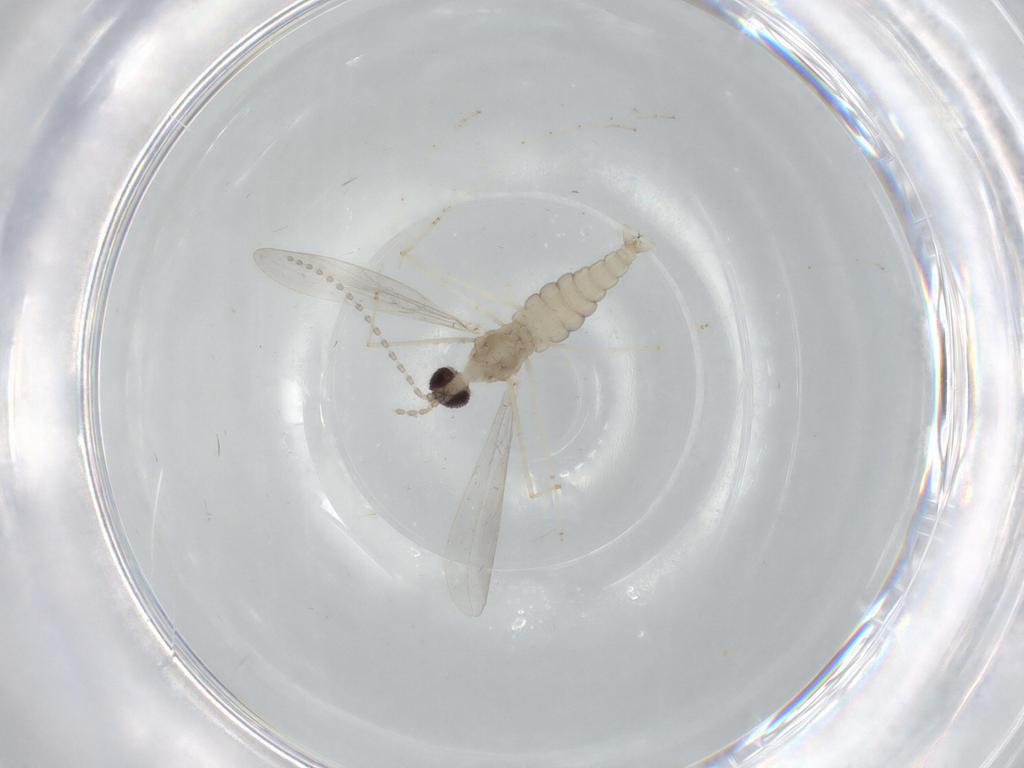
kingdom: Animalia
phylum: Arthropoda
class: Insecta
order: Diptera
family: Cecidomyiidae
